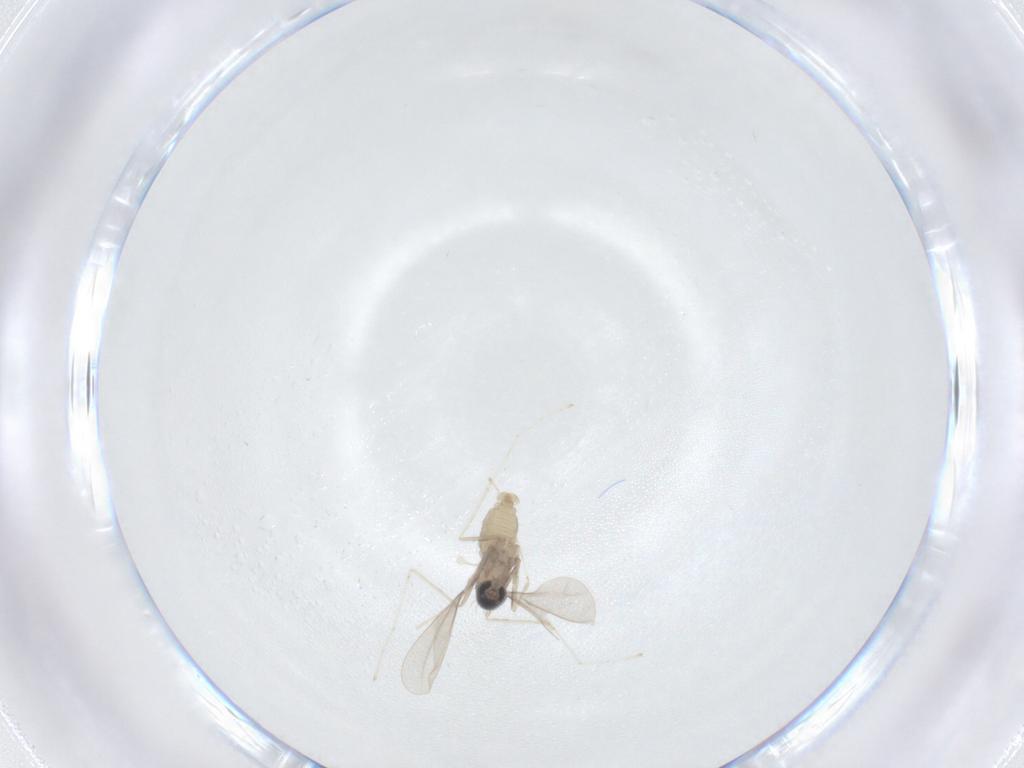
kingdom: Animalia
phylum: Arthropoda
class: Insecta
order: Diptera
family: Cecidomyiidae
